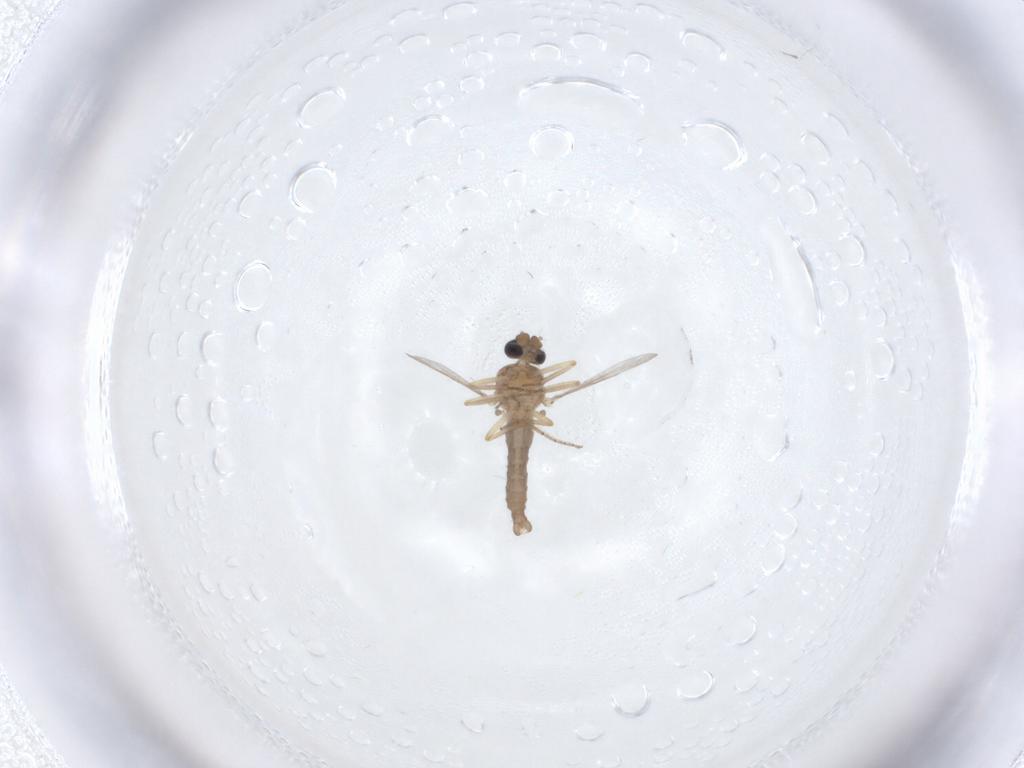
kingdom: Animalia
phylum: Arthropoda
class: Insecta
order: Diptera
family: Ceratopogonidae
